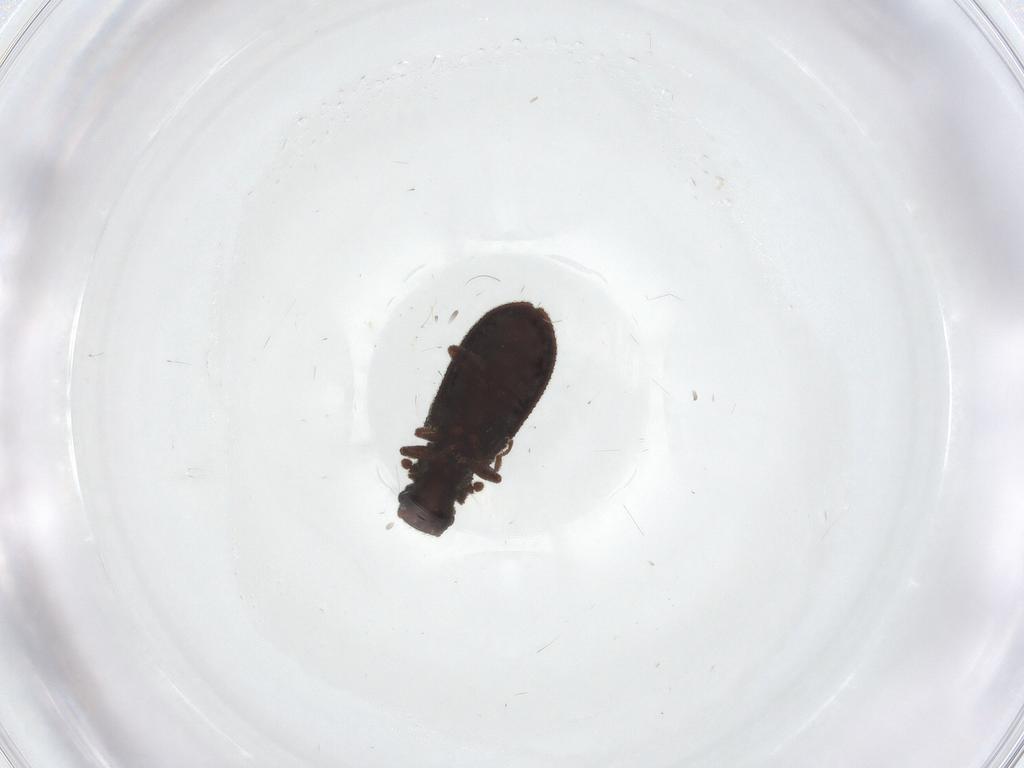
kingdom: Animalia
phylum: Arthropoda
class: Insecta
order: Coleoptera
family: Zopheridae
